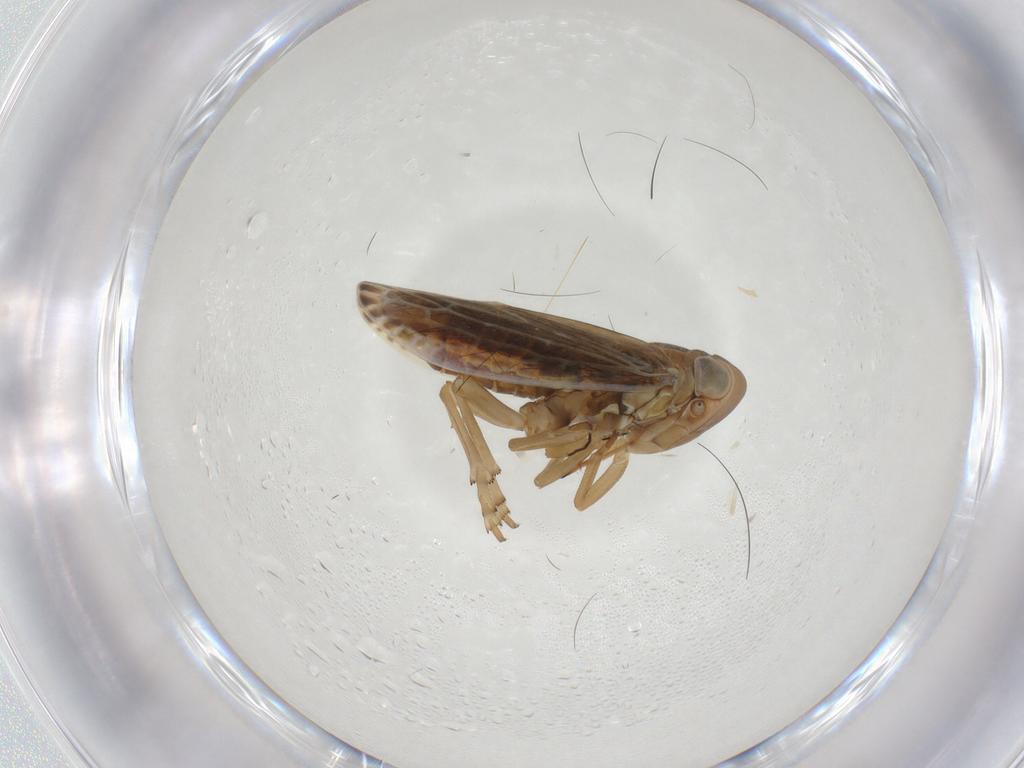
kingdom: Animalia
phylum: Arthropoda
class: Insecta
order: Hemiptera
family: Achilidae
